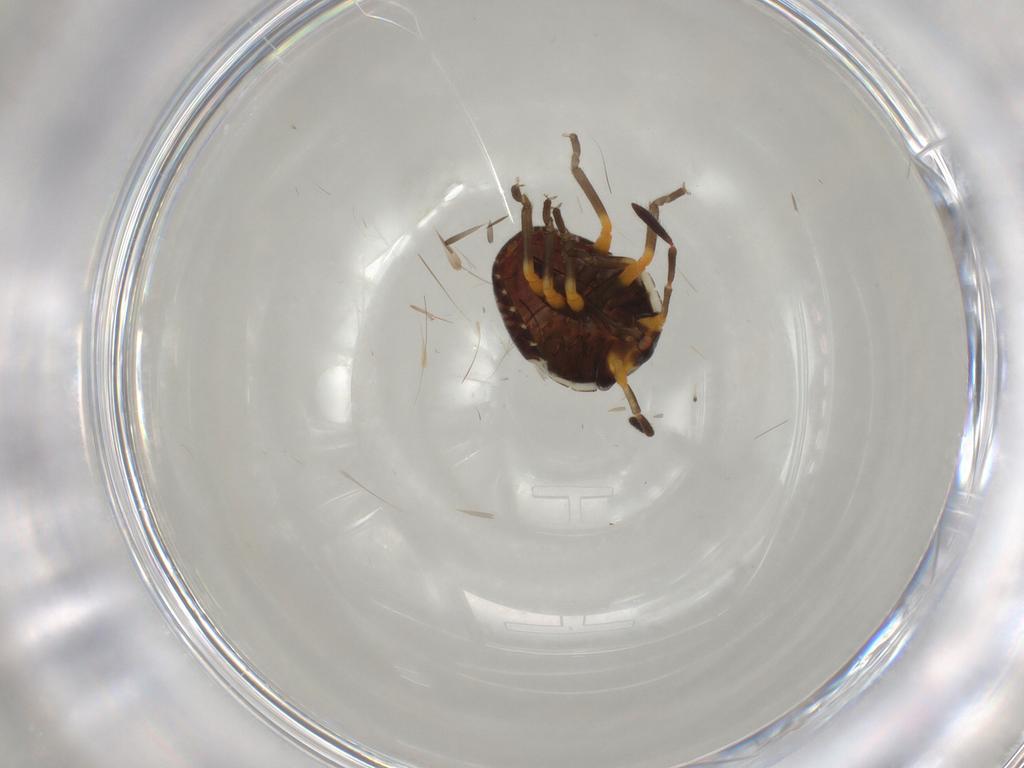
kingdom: Animalia
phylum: Arthropoda
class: Insecta
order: Hemiptera
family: Pentatomidae
